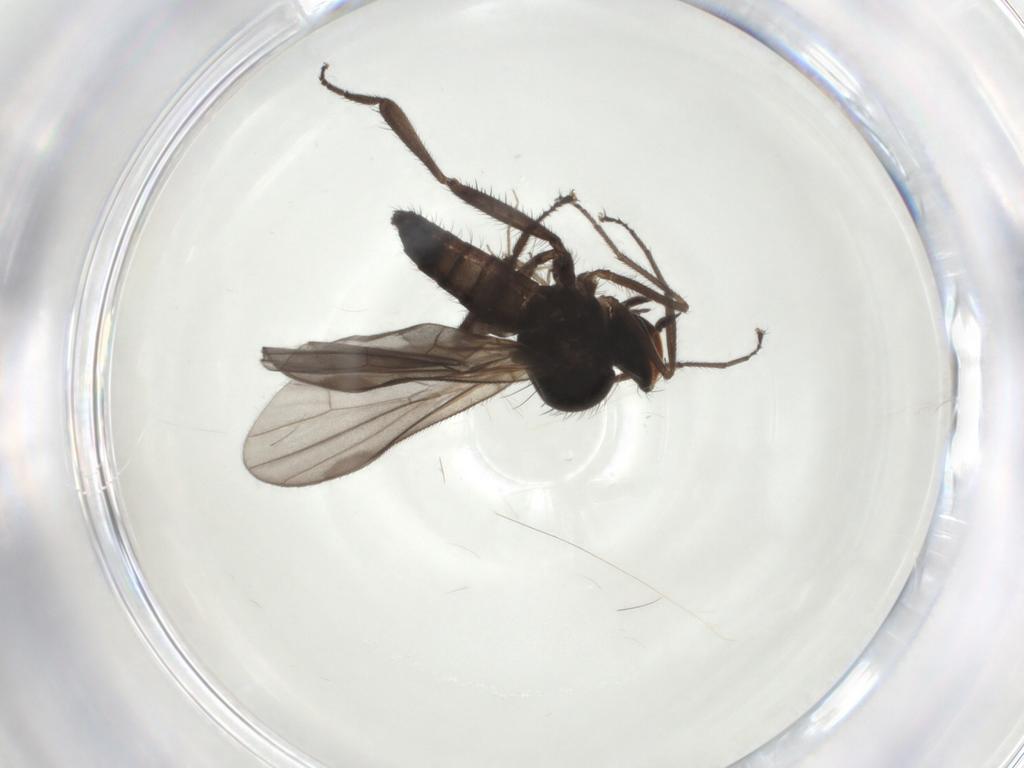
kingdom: Animalia
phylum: Arthropoda
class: Insecta
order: Diptera
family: Hybotidae
